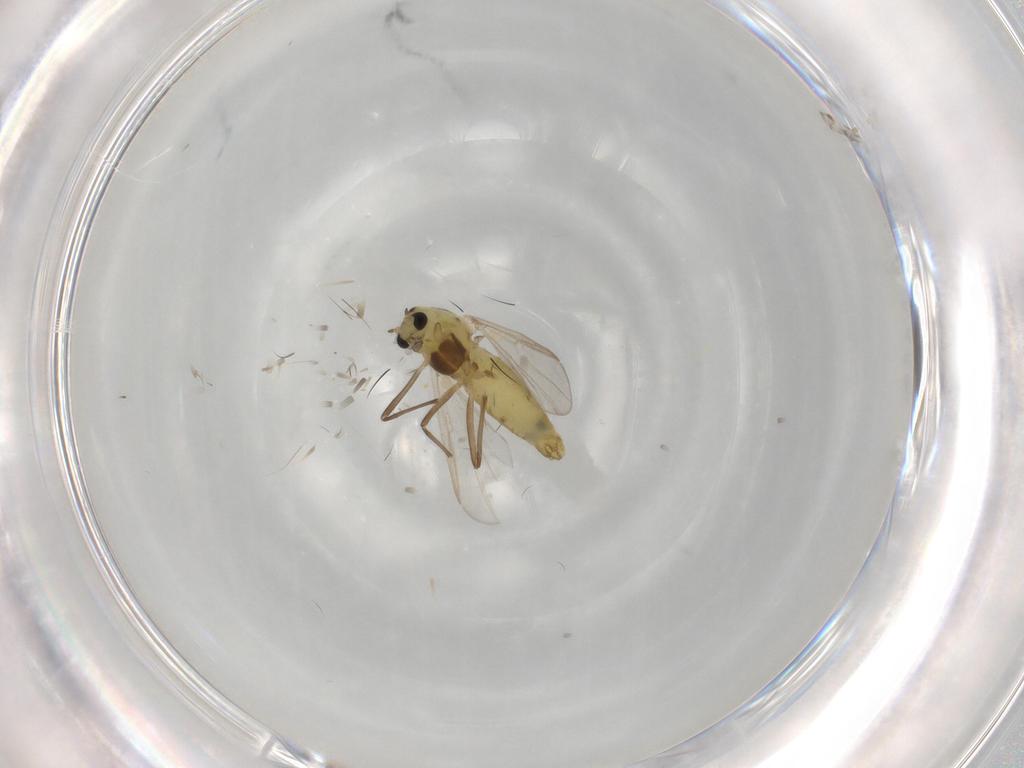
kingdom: Animalia
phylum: Arthropoda
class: Insecta
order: Diptera
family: Chironomidae
